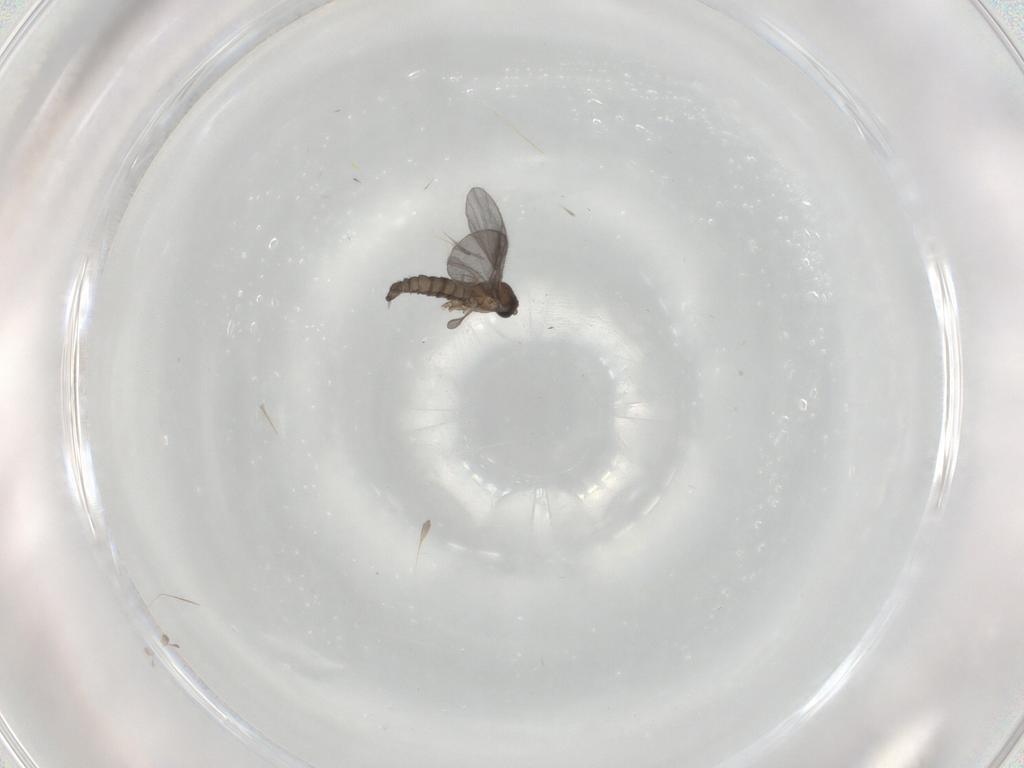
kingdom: Animalia
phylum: Arthropoda
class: Insecta
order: Diptera
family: Sciaridae
